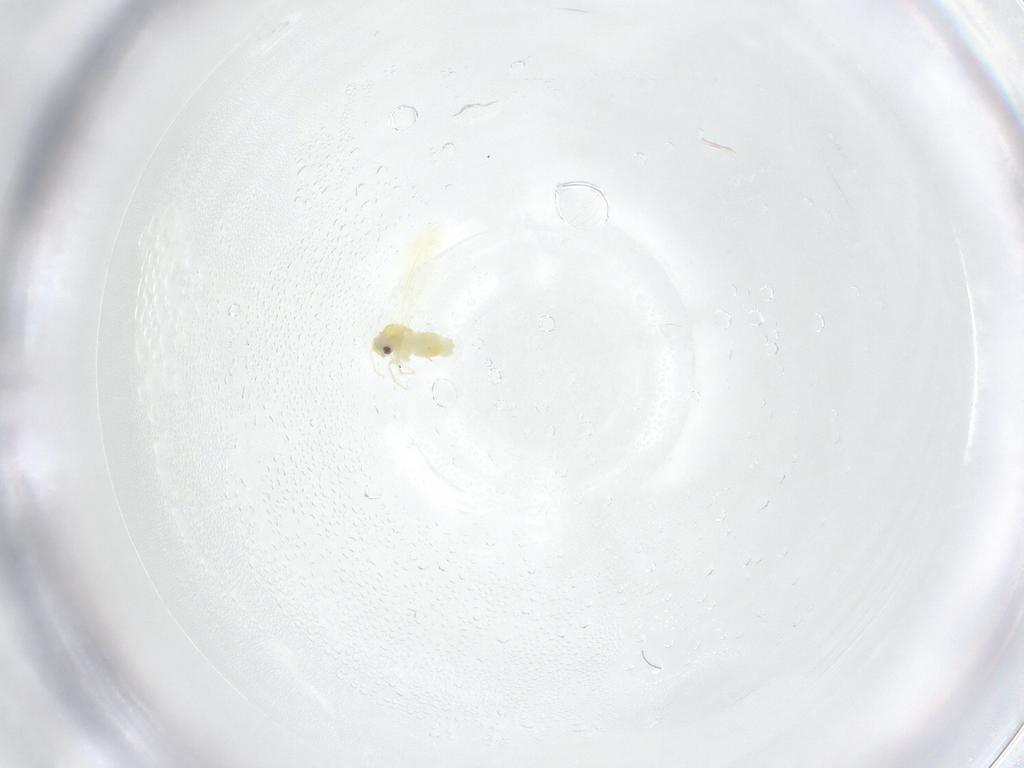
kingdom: Animalia
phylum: Arthropoda
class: Insecta
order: Hemiptera
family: Aleyrodidae
